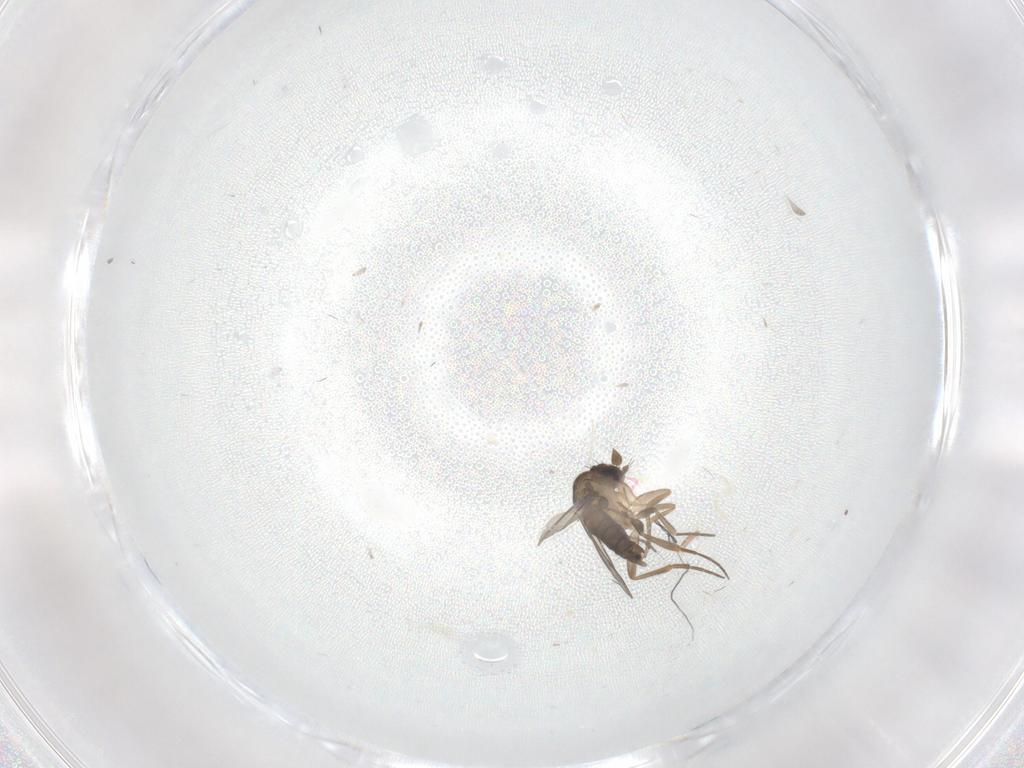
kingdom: Animalia
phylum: Arthropoda
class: Insecta
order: Diptera
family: Phoridae
